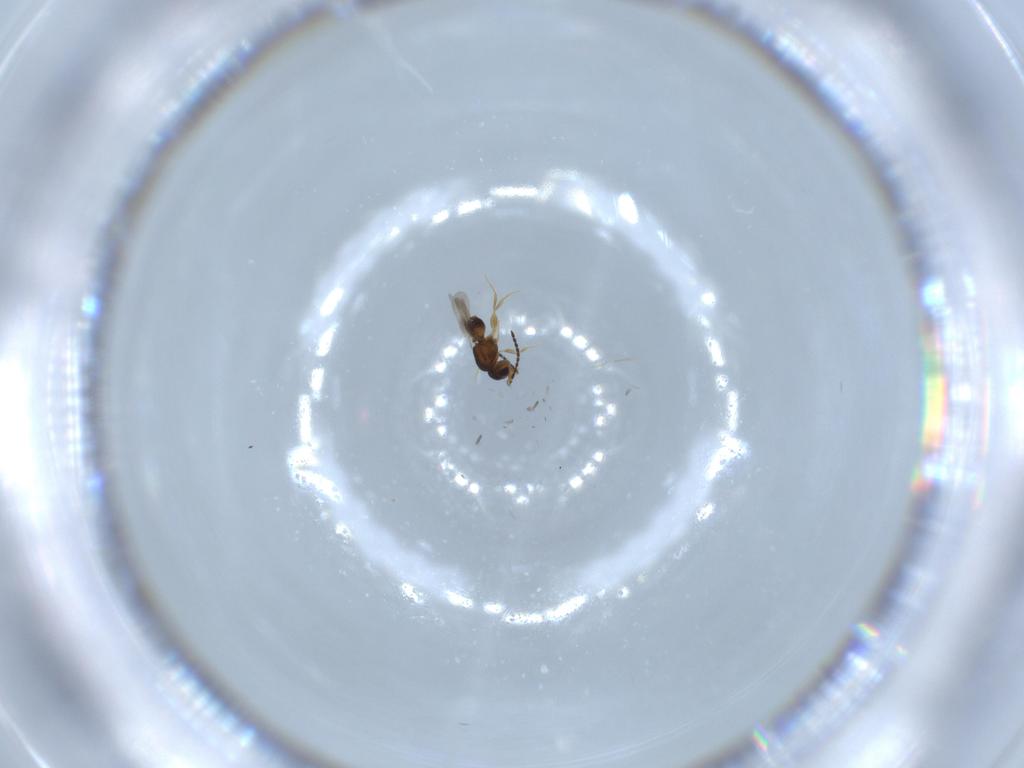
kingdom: Animalia
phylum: Arthropoda
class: Insecta
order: Hymenoptera
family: Ceraphronidae
